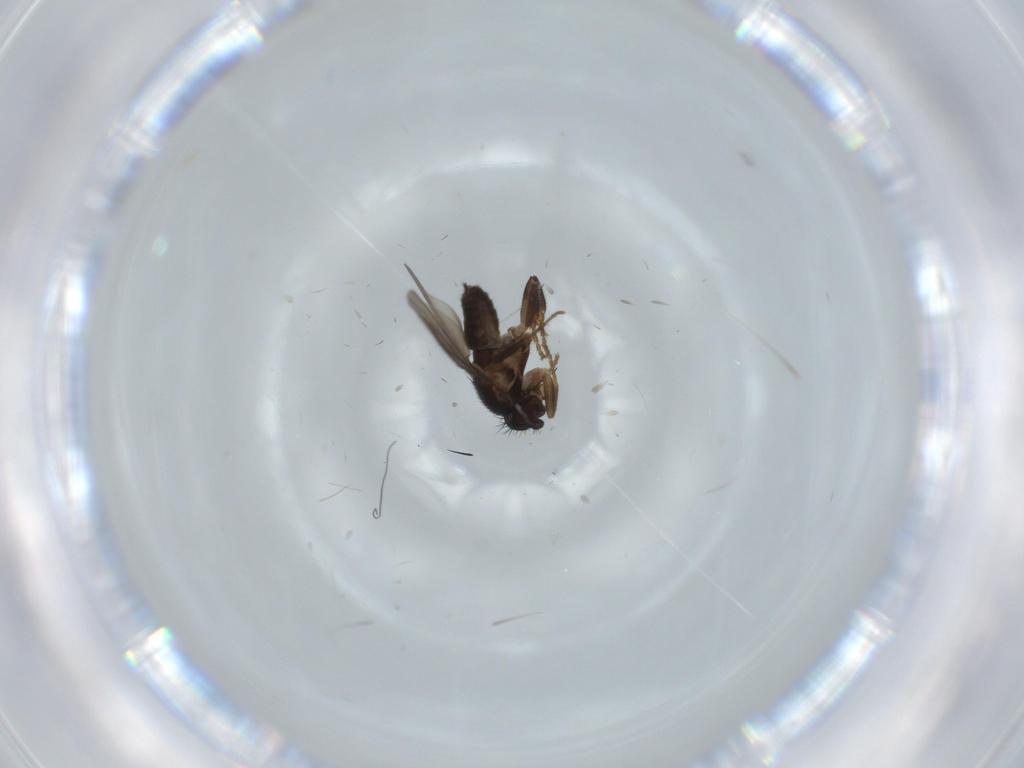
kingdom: Animalia
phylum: Arthropoda
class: Insecta
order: Diptera
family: Sphaeroceridae
